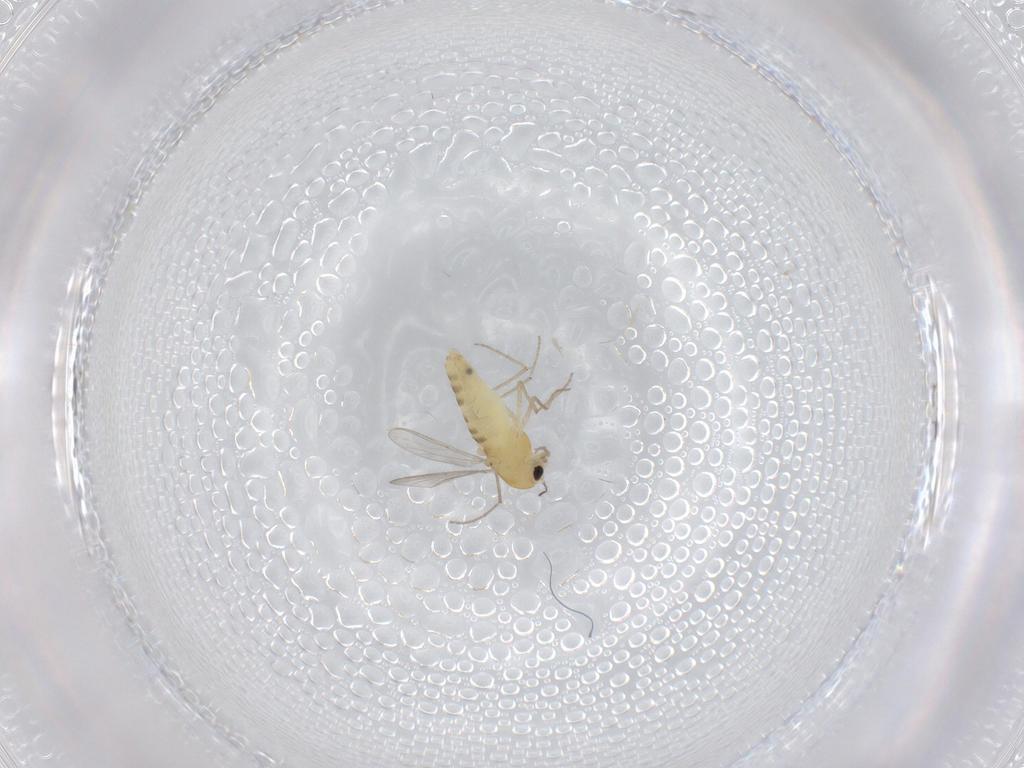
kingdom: Animalia
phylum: Arthropoda
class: Insecta
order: Diptera
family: Chironomidae
